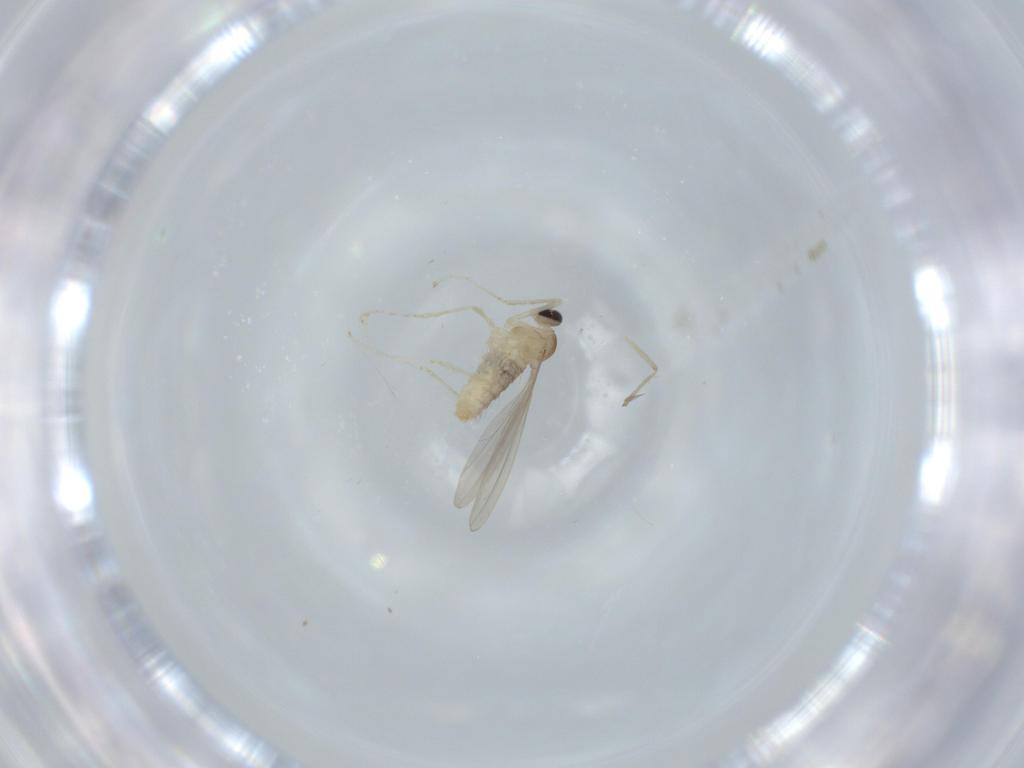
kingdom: Animalia
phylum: Arthropoda
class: Insecta
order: Diptera
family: Cecidomyiidae
